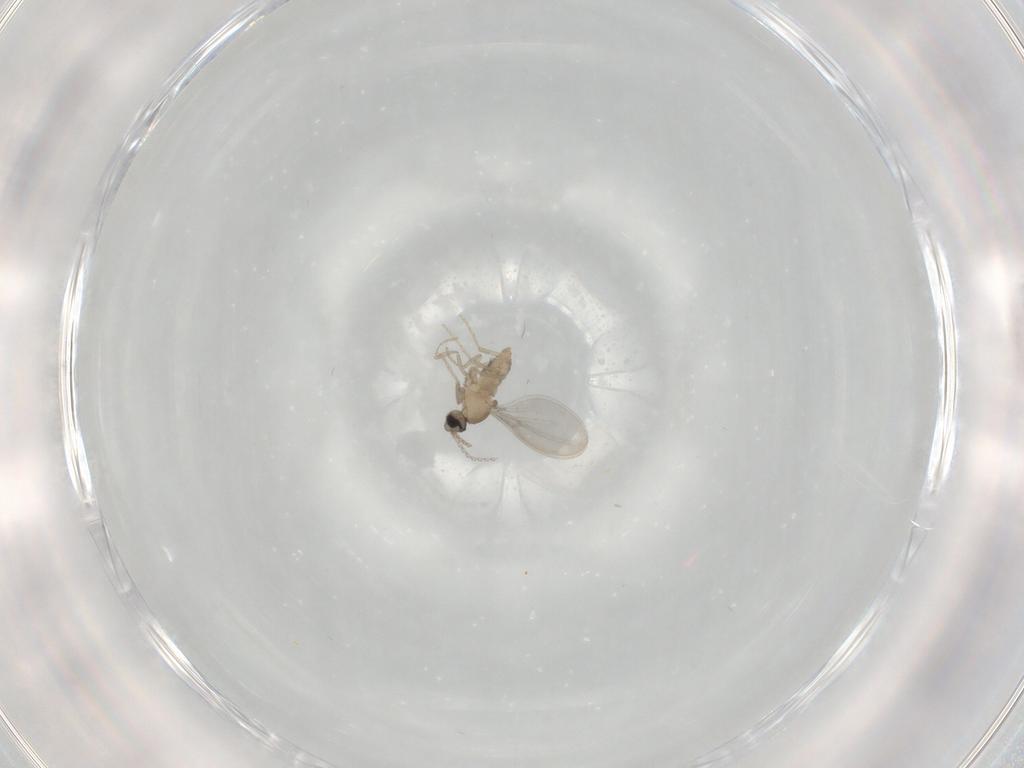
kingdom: Animalia
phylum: Arthropoda
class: Insecta
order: Diptera
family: Cecidomyiidae
